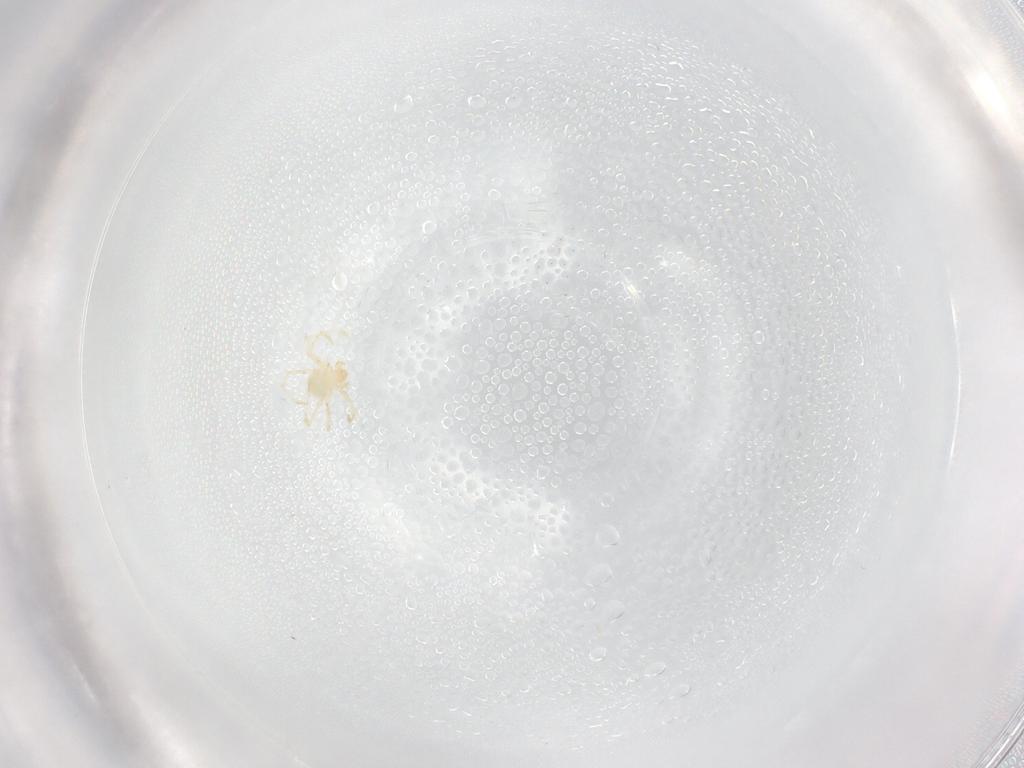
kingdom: Animalia
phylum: Arthropoda
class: Arachnida
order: Trombidiformes
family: Erythraeidae
